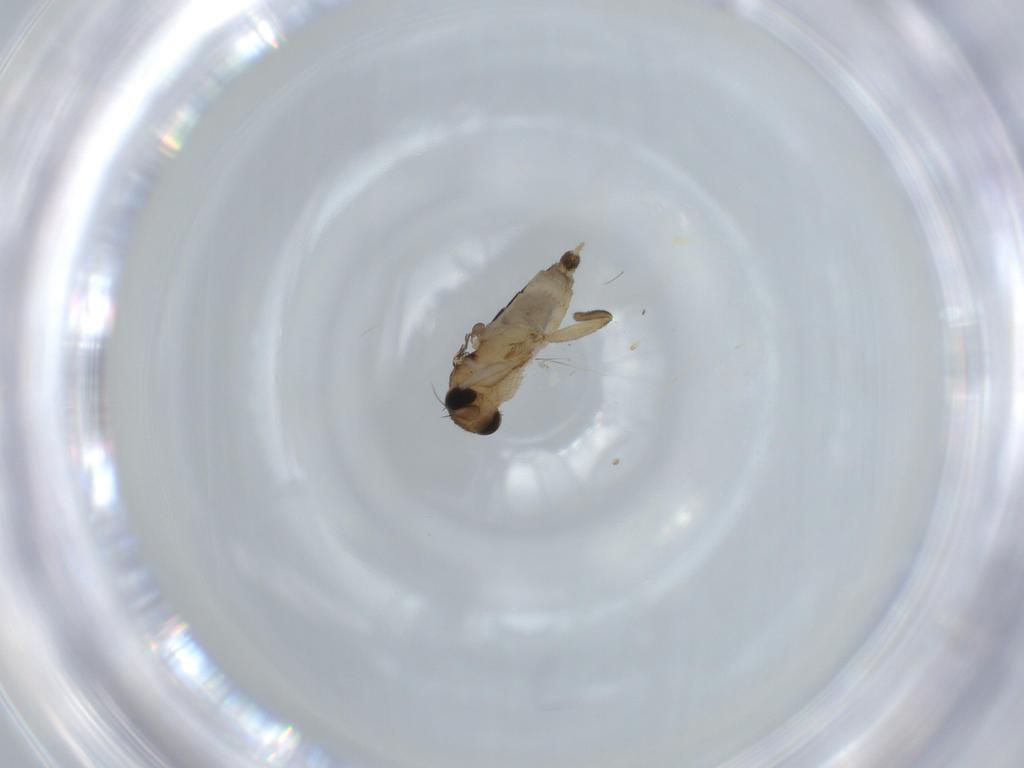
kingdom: Animalia
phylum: Arthropoda
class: Insecta
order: Diptera
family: Phoridae
